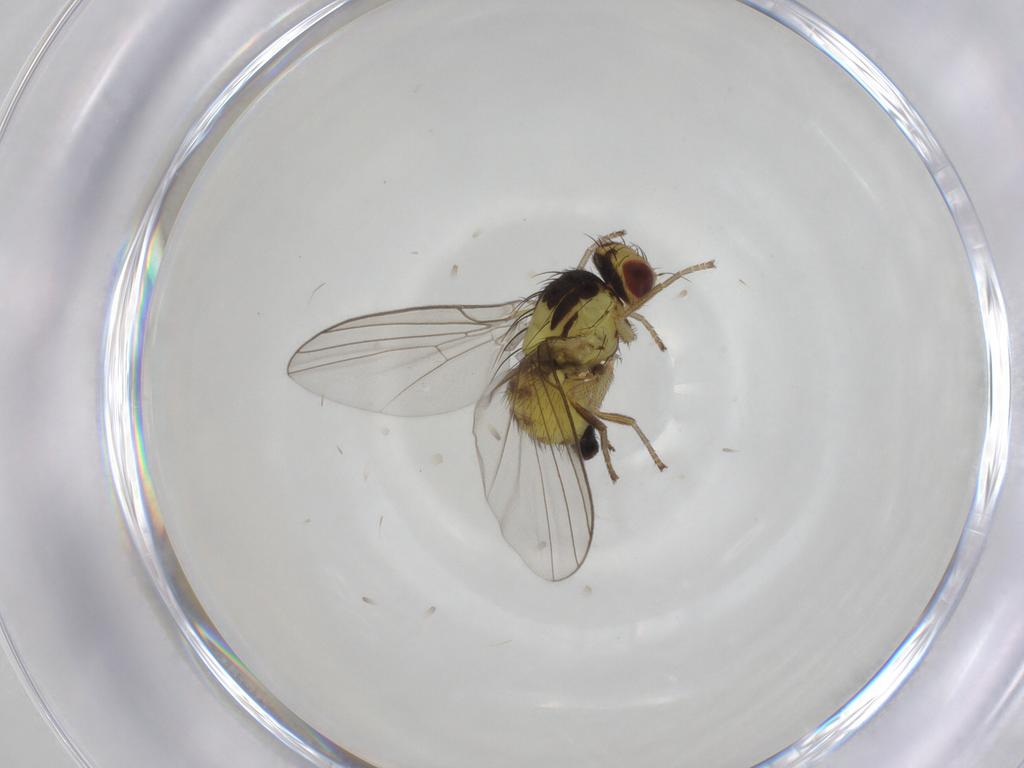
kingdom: Animalia
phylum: Arthropoda
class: Insecta
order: Diptera
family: Agromyzidae
